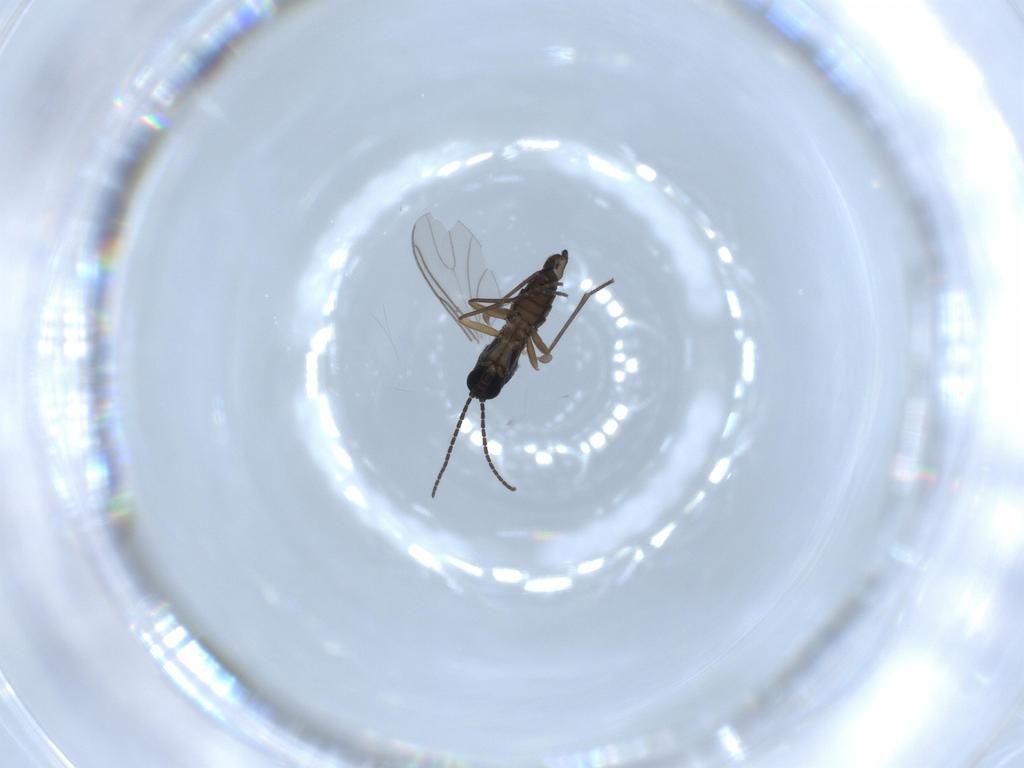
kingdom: Animalia
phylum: Arthropoda
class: Insecta
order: Diptera
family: Sciaridae
